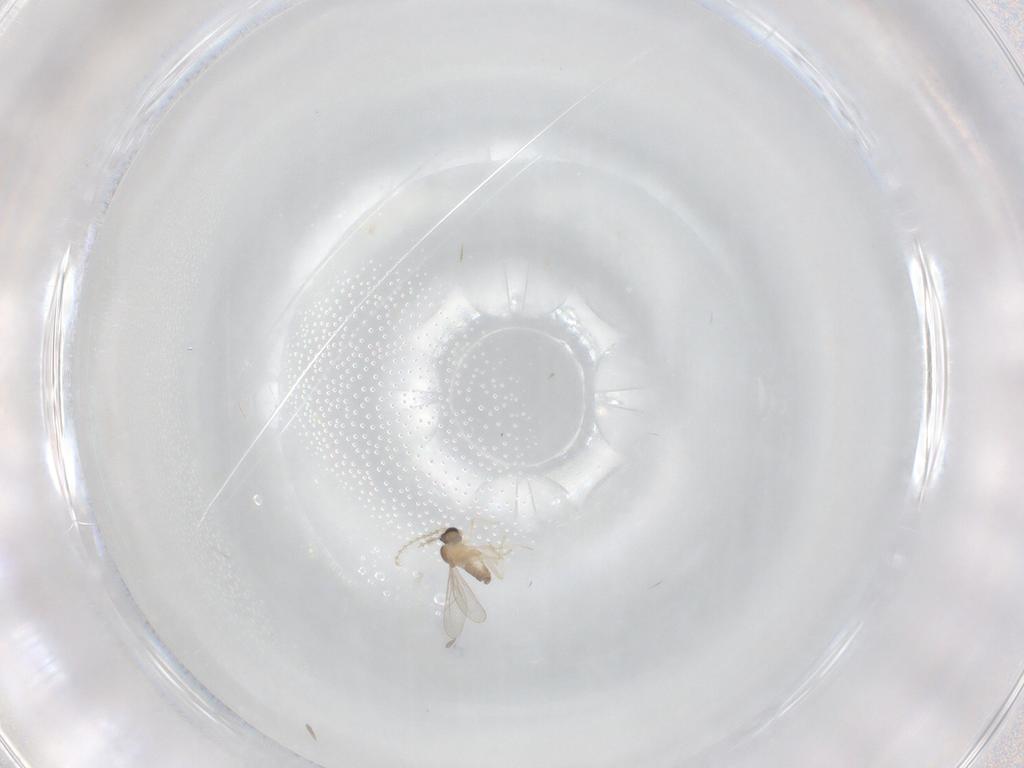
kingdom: Animalia
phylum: Arthropoda
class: Insecta
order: Diptera
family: Cecidomyiidae
